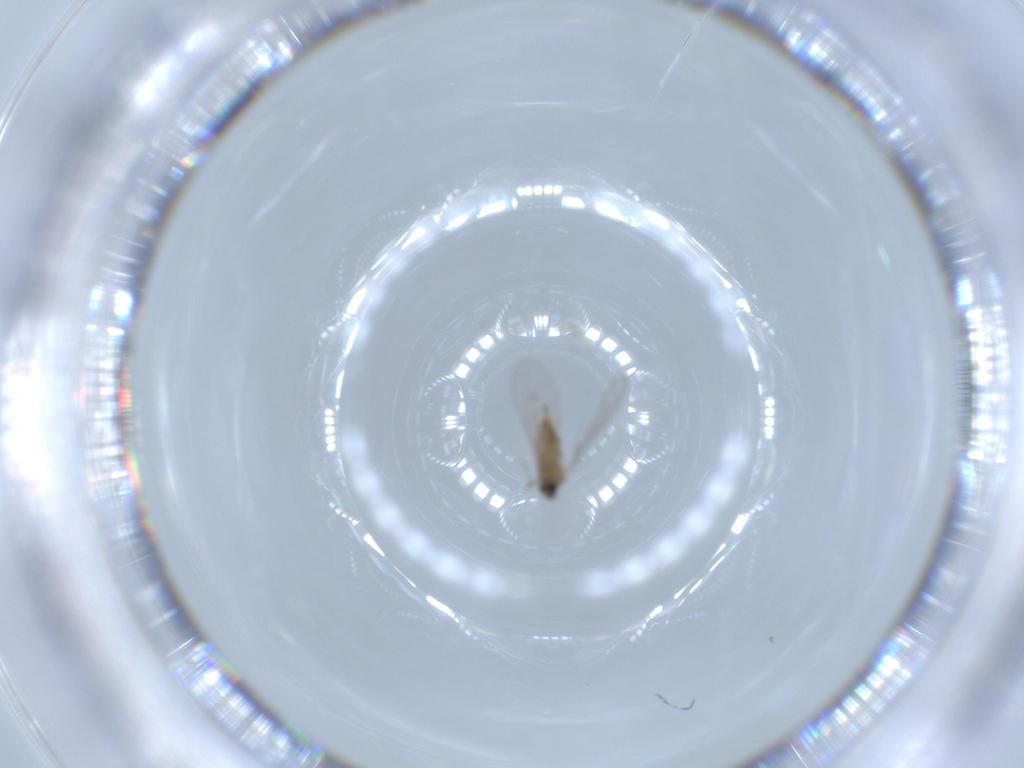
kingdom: Animalia
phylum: Arthropoda
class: Insecta
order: Diptera
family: Cecidomyiidae
